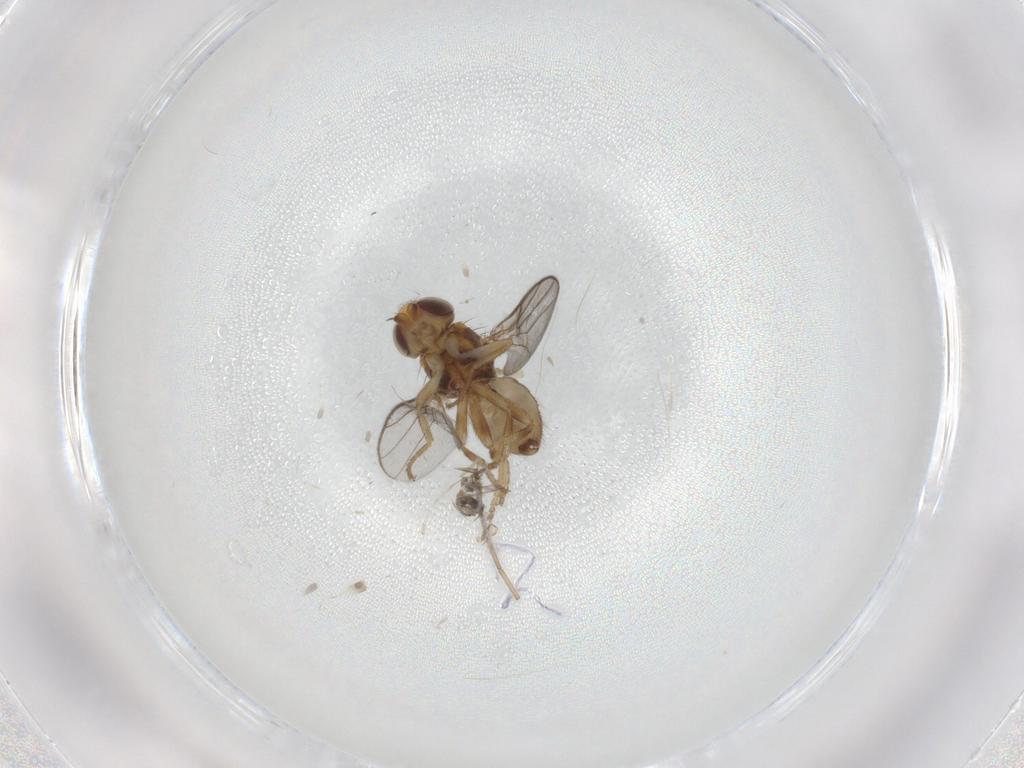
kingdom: Animalia
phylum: Arthropoda
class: Insecta
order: Diptera
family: Chloropidae
